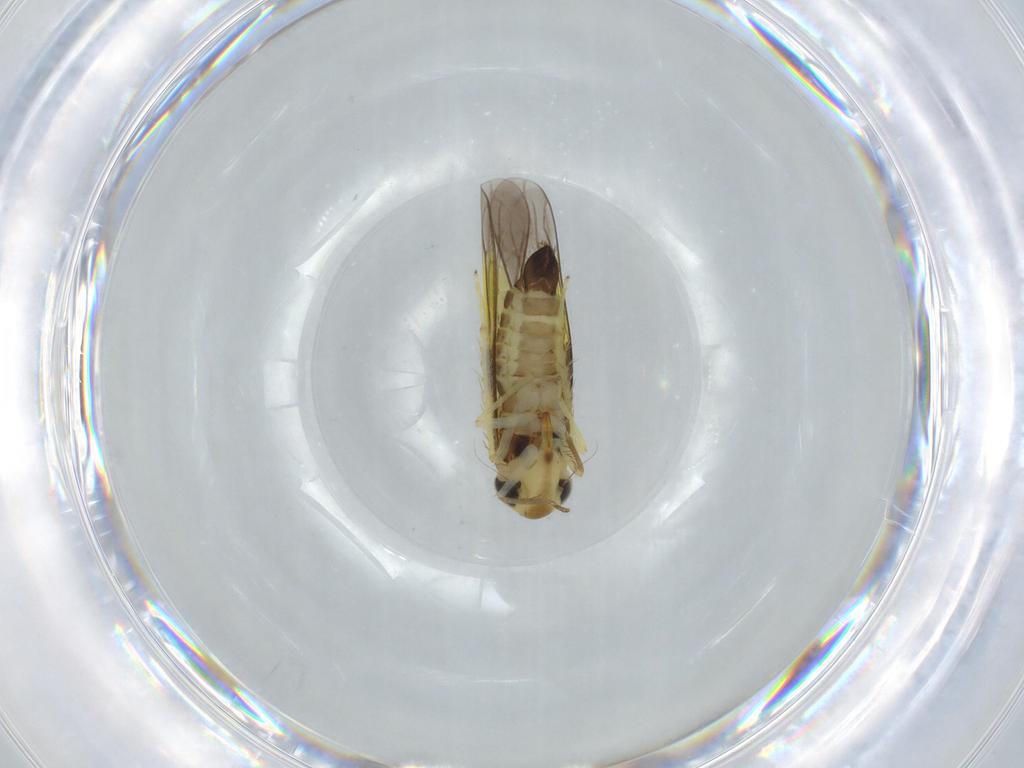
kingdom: Animalia
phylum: Arthropoda
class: Insecta
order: Hemiptera
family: Cicadellidae
